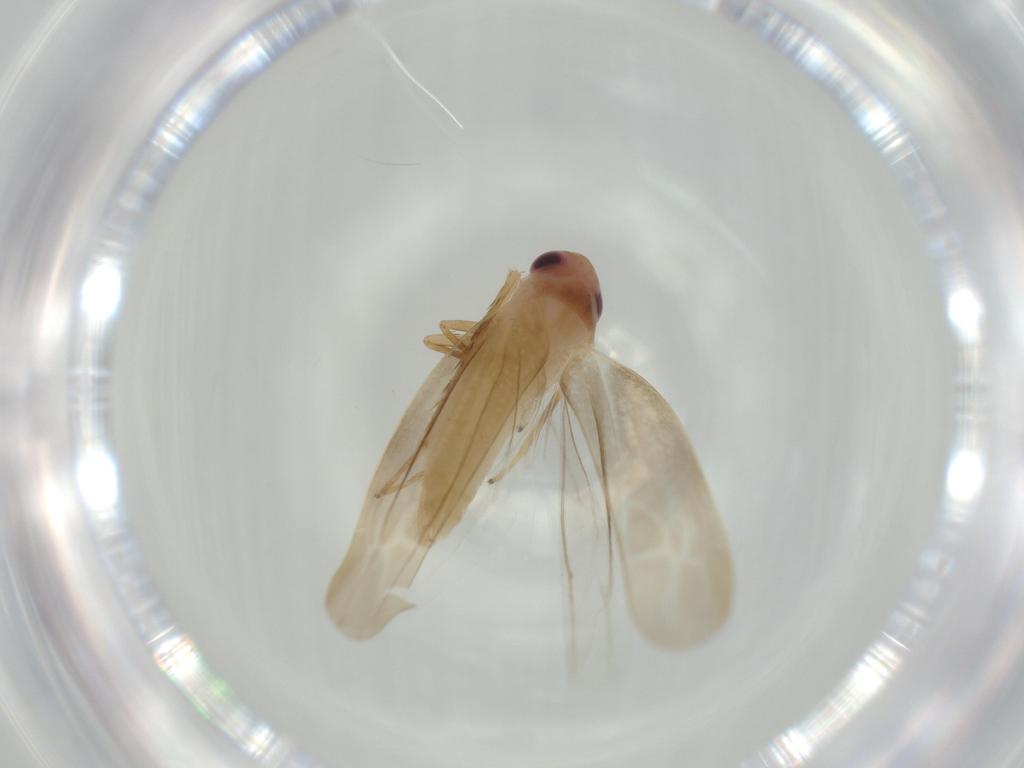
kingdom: Animalia
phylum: Arthropoda
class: Insecta
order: Hemiptera
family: Cicadellidae
